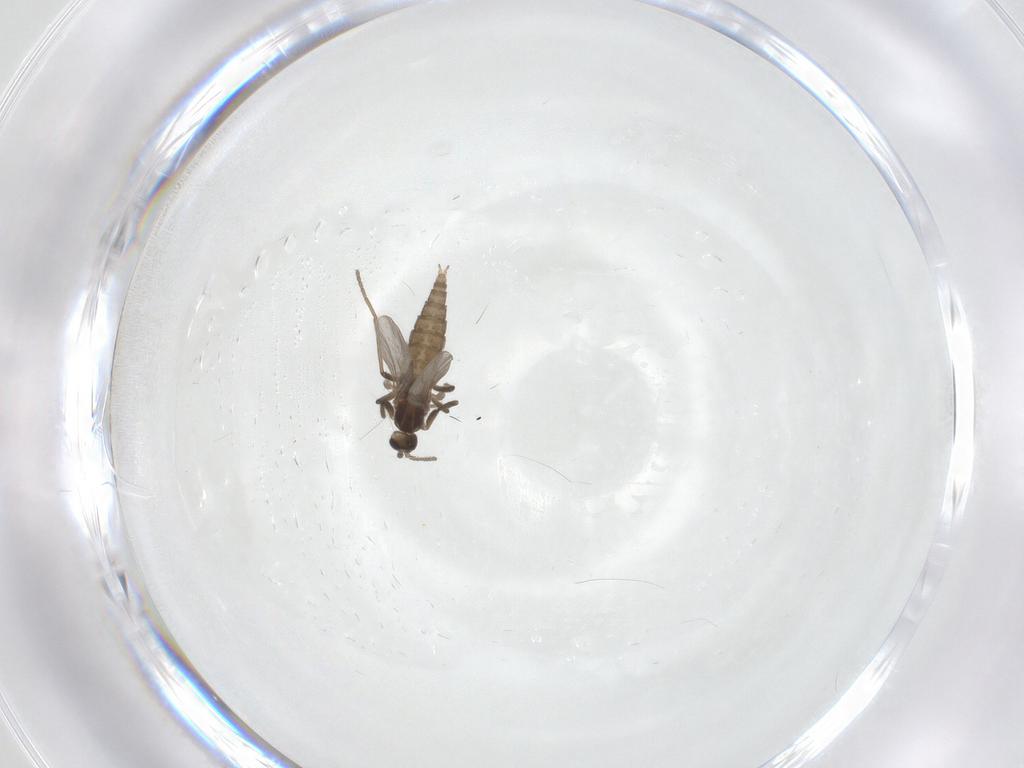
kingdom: Animalia
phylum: Arthropoda
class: Insecta
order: Diptera
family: Cecidomyiidae
